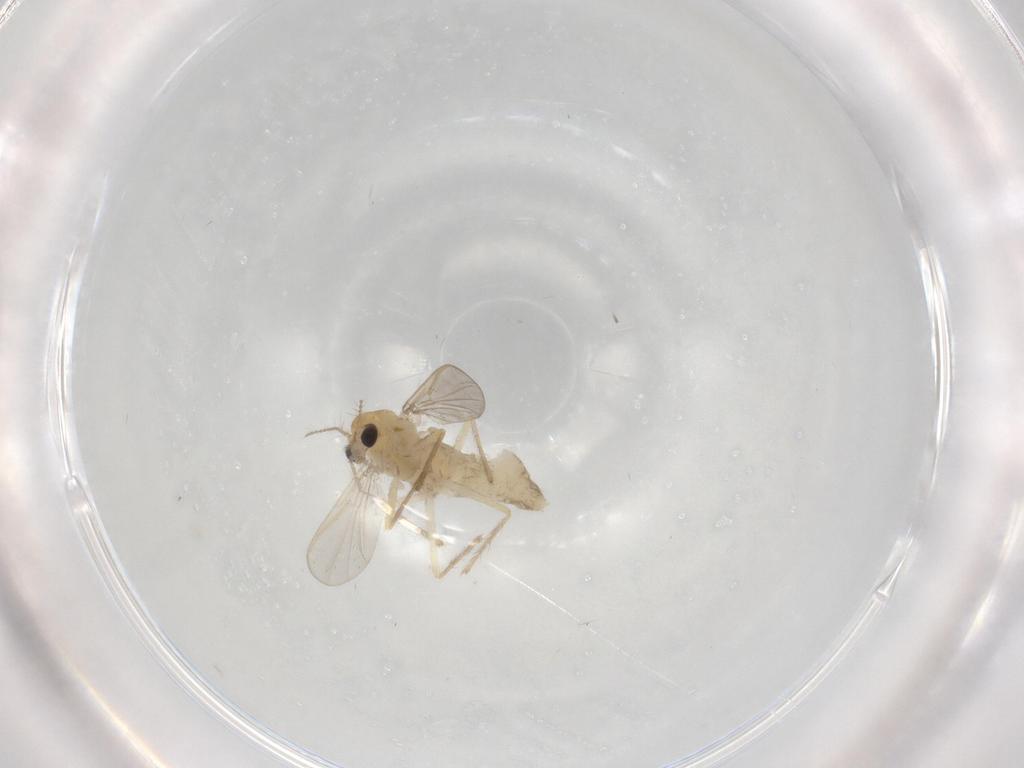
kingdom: Animalia
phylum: Arthropoda
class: Insecta
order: Diptera
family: Chironomidae
